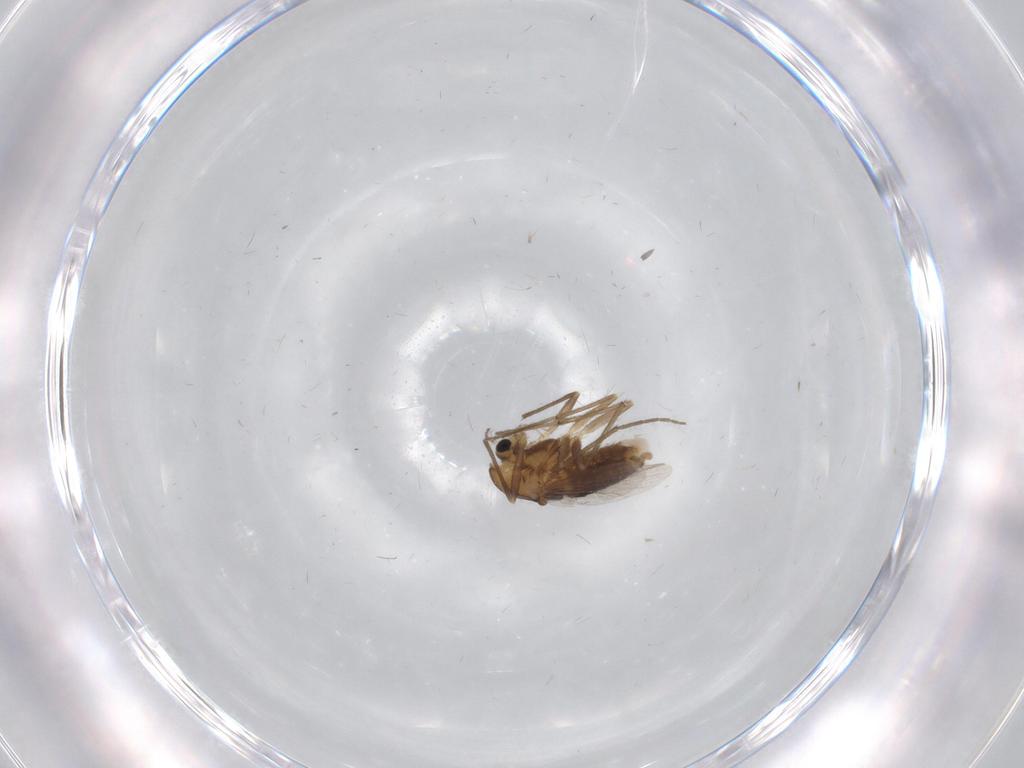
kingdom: Animalia
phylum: Arthropoda
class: Insecta
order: Diptera
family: Chironomidae
